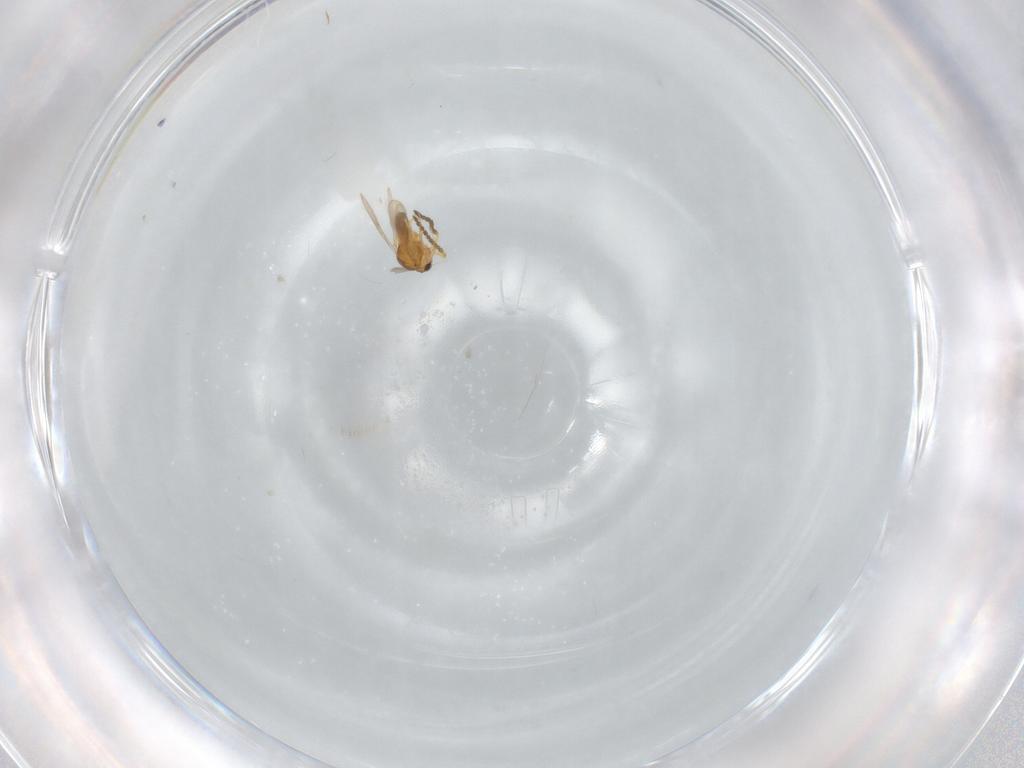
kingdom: Animalia
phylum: Arthropoda
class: Insecta
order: Hymenoptera
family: Scelionidae
